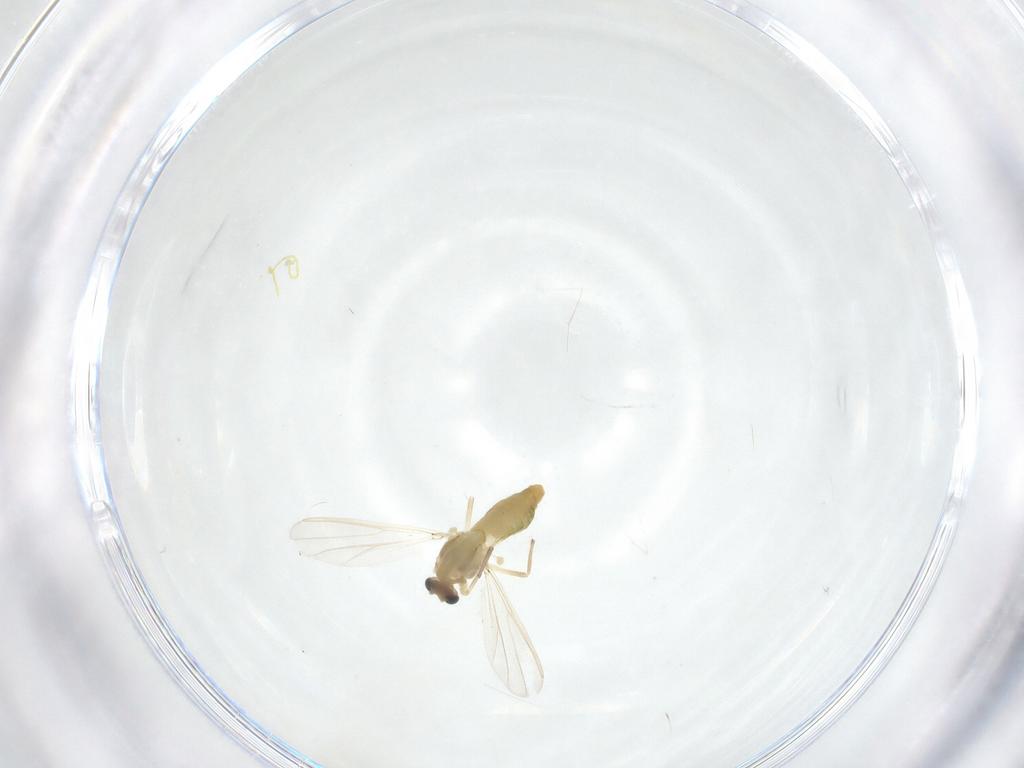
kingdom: Animalia
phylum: Arthropoda
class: Insecta
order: Diptera
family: Chironomidae
